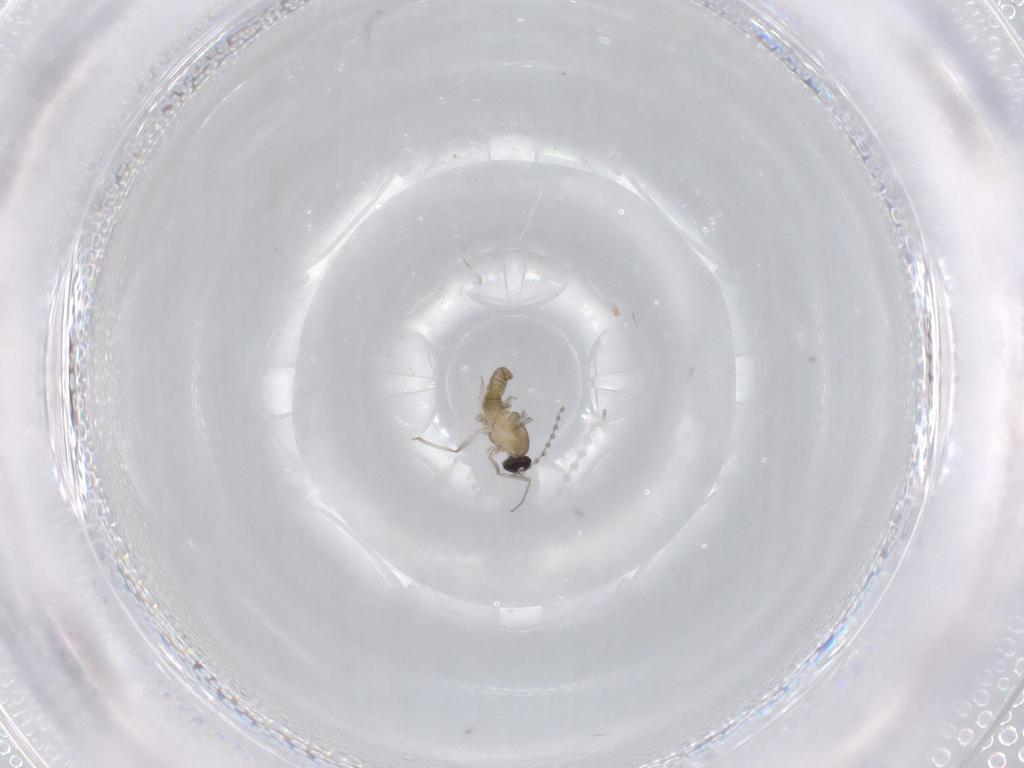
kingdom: Animalia
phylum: Arthropoda
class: Insecta
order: Diptera
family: Cecidomyiidae
